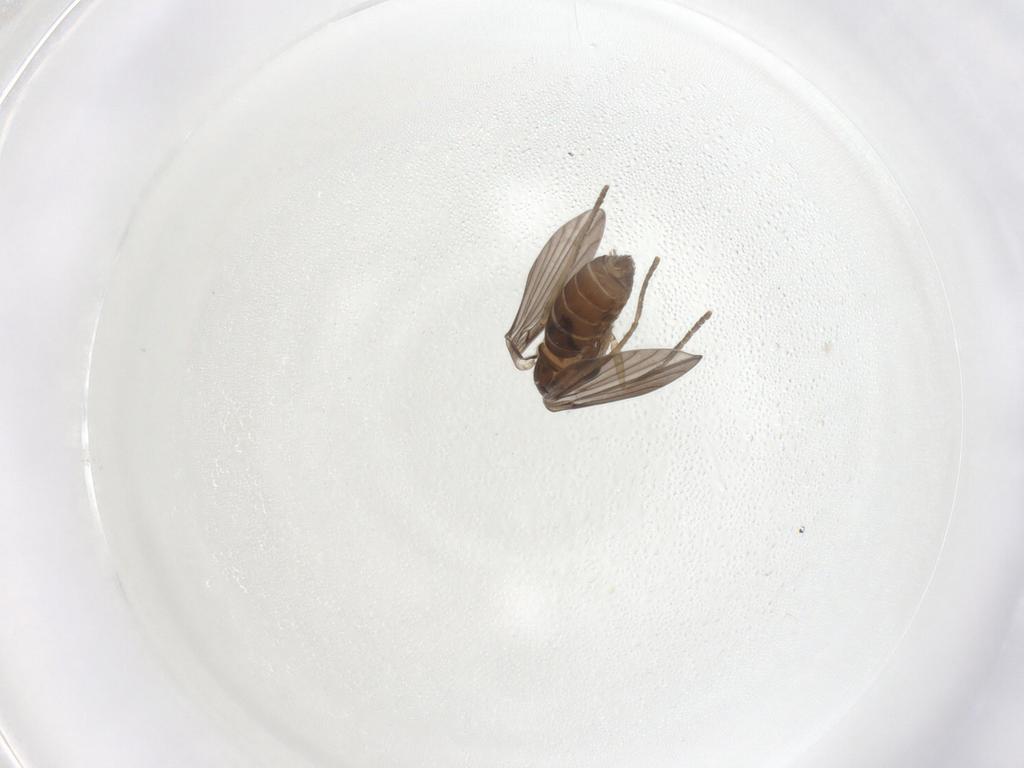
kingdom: Animalia
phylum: Arthropoda
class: Insecta
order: Diptera
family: Psychodidae
